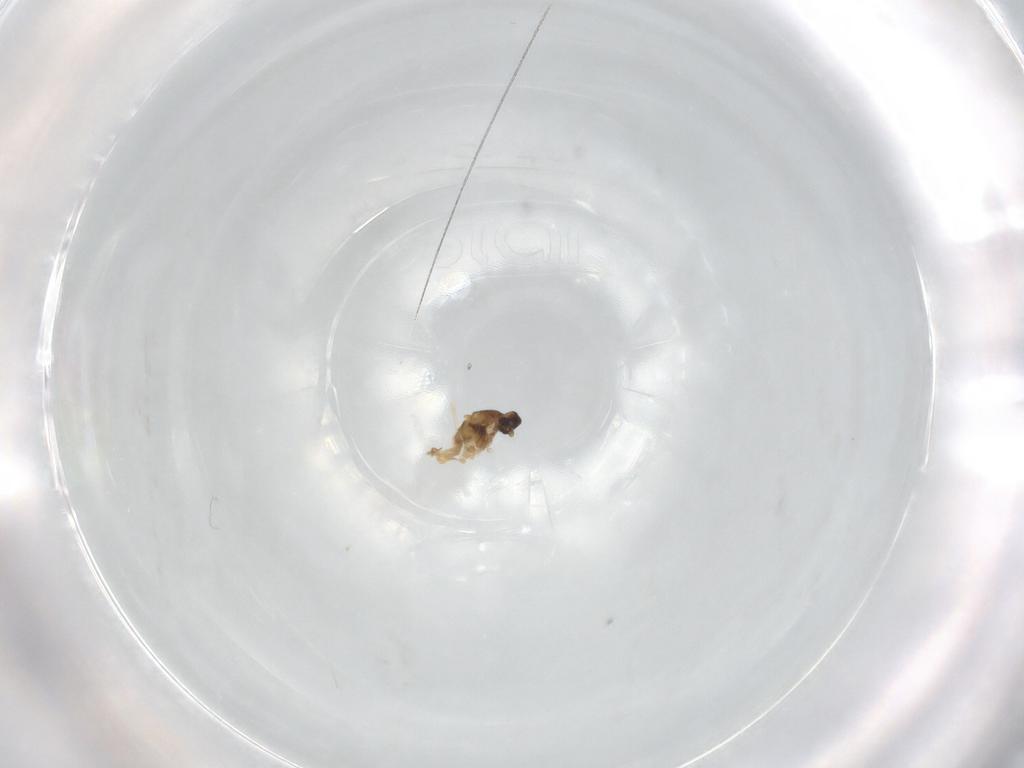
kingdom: Animalia
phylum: Arthropoda
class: Insecta
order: Diptera
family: Cecidomyiidae
